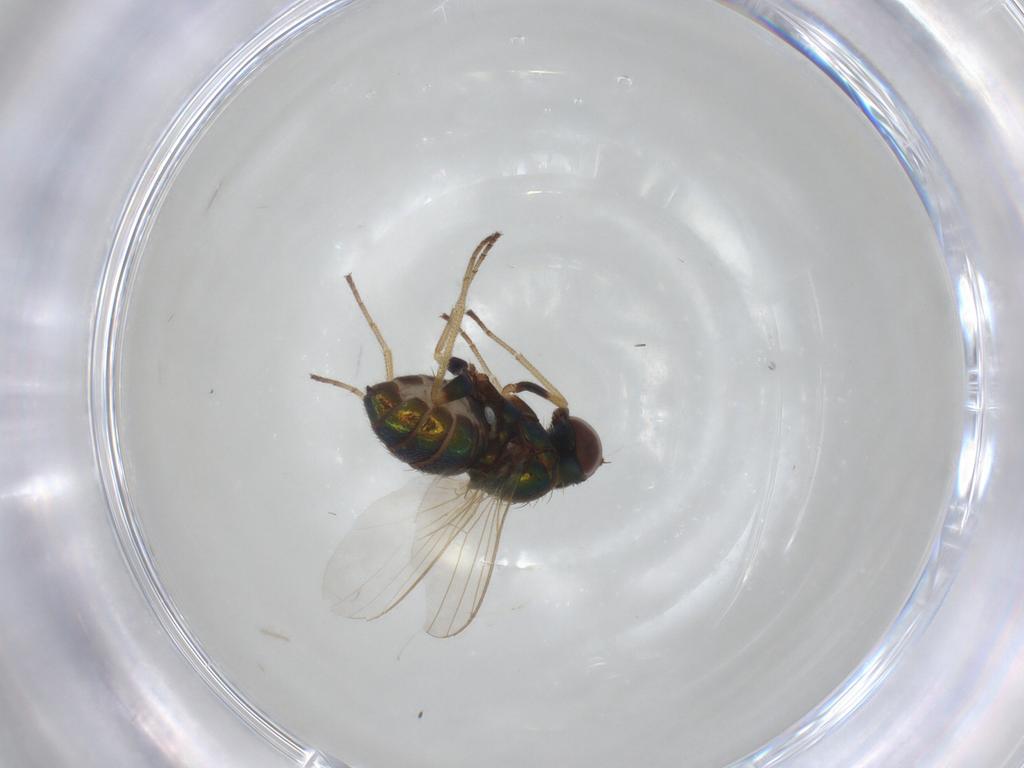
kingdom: Animalia
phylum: Arthropoda
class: Insecta
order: Diptera
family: Dolichopodidae
